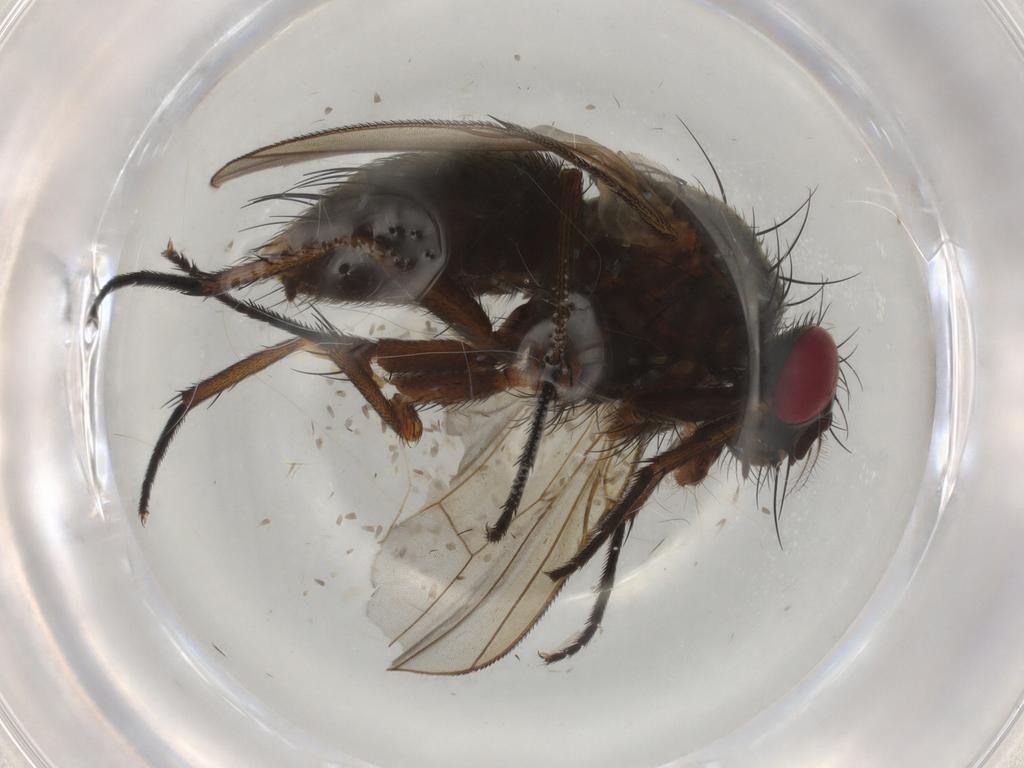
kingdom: Animalia
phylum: Arthropoda
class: Insecta
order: Diptera
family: Muscidae
